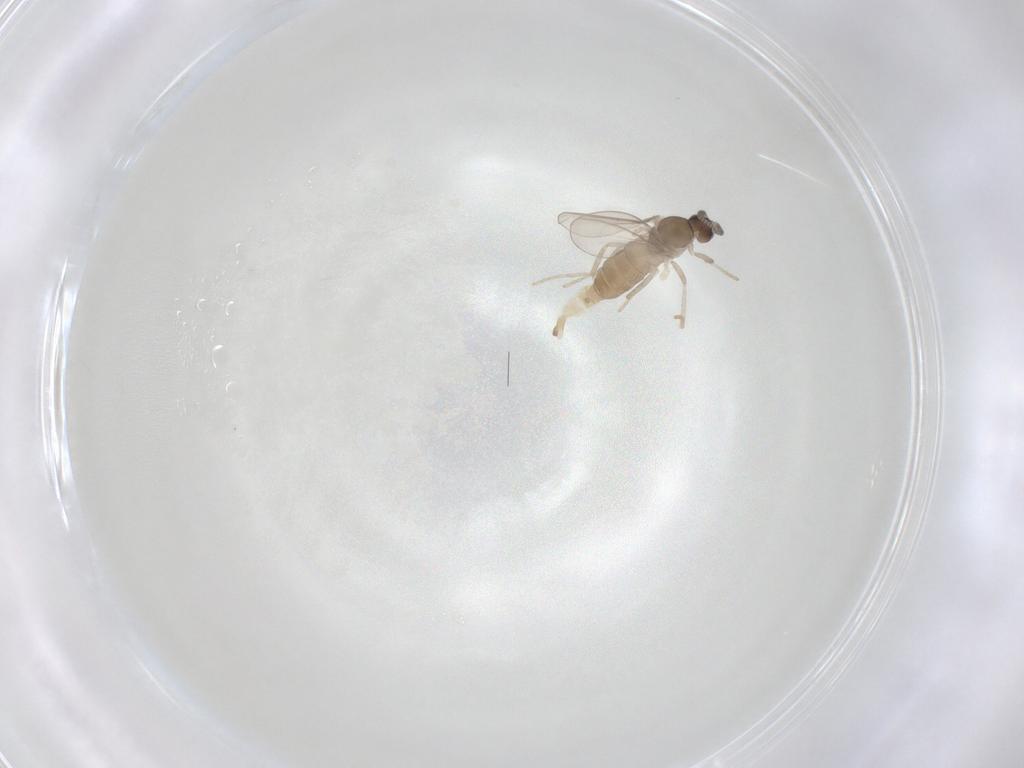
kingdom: Animalia
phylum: Arthropoda
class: Insecta
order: Diptera
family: Cecidomyiidae
